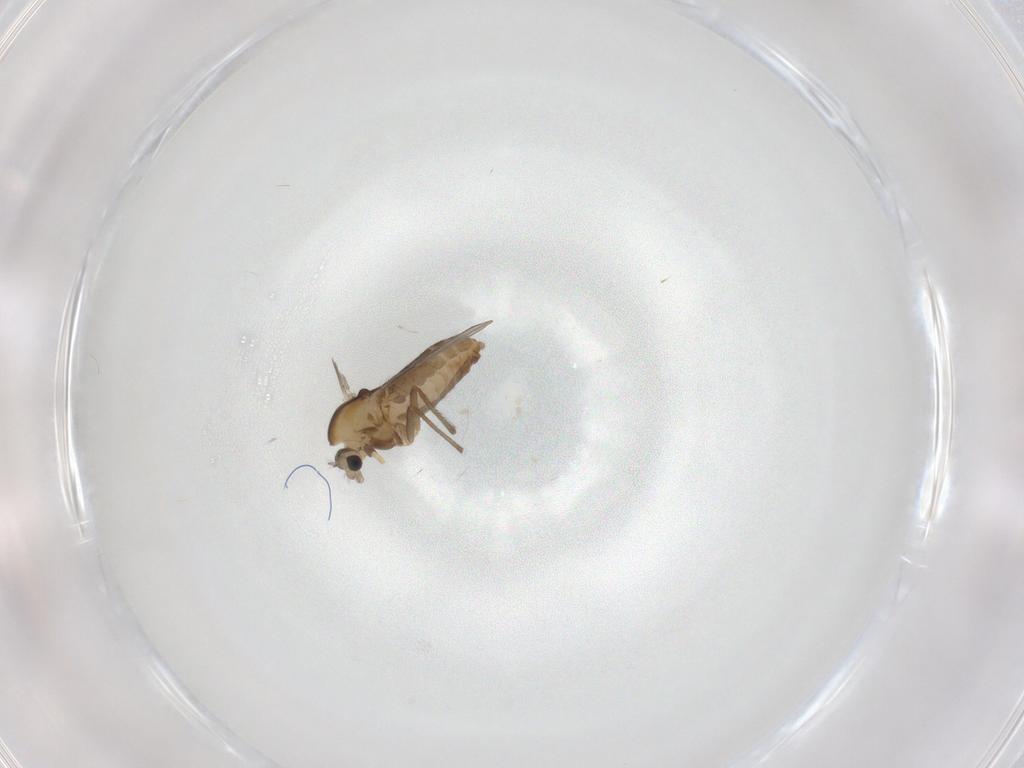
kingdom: Animalia
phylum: Arthropoda
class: Insecta
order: Diptera
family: Chironomidae
